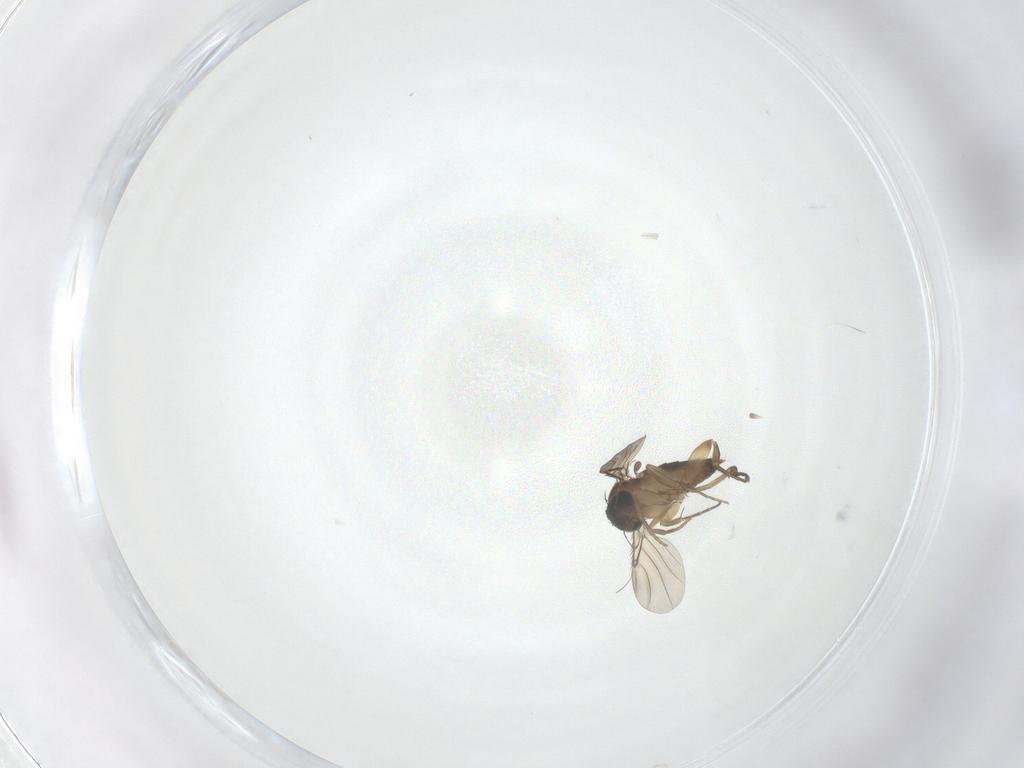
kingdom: Animalia
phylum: Arthropoda
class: Insecta
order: Diptera
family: Phoridae
